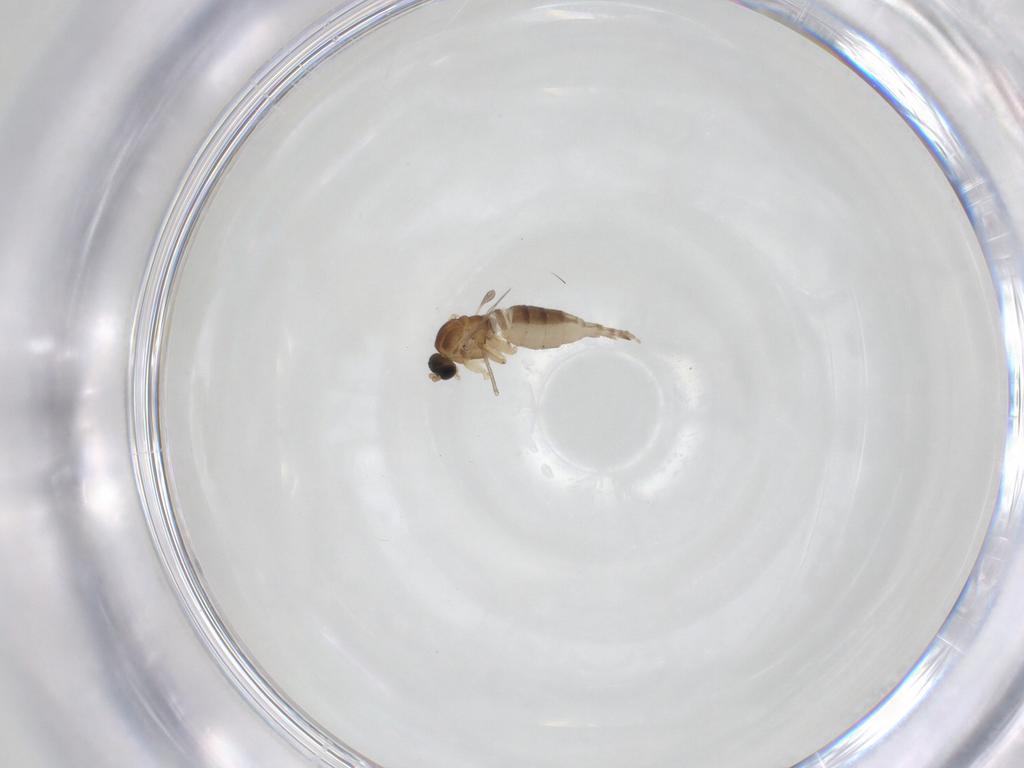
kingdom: Animalia
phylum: Arthropoda
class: Insecta
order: Diptera
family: Sciaridae
